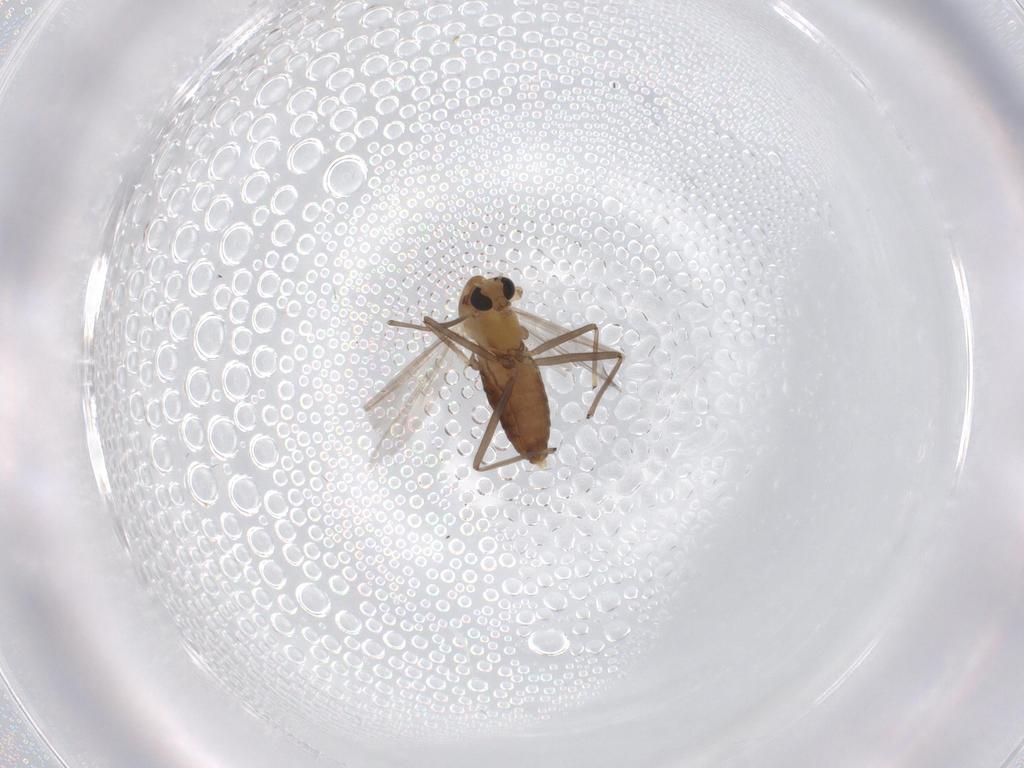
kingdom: Animalia
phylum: Arthropoda
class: Insecta
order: Diptera
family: Chironomidae
